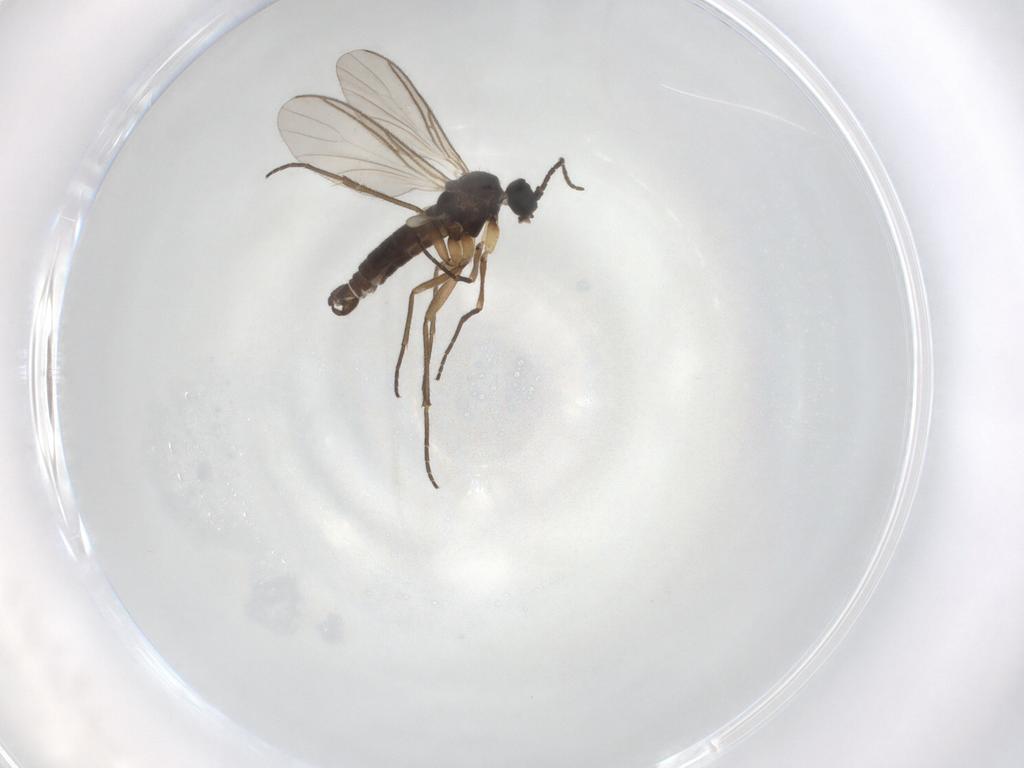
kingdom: Animalia
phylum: Arthropoda
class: Insecta
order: Diptera
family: Sciaridae
